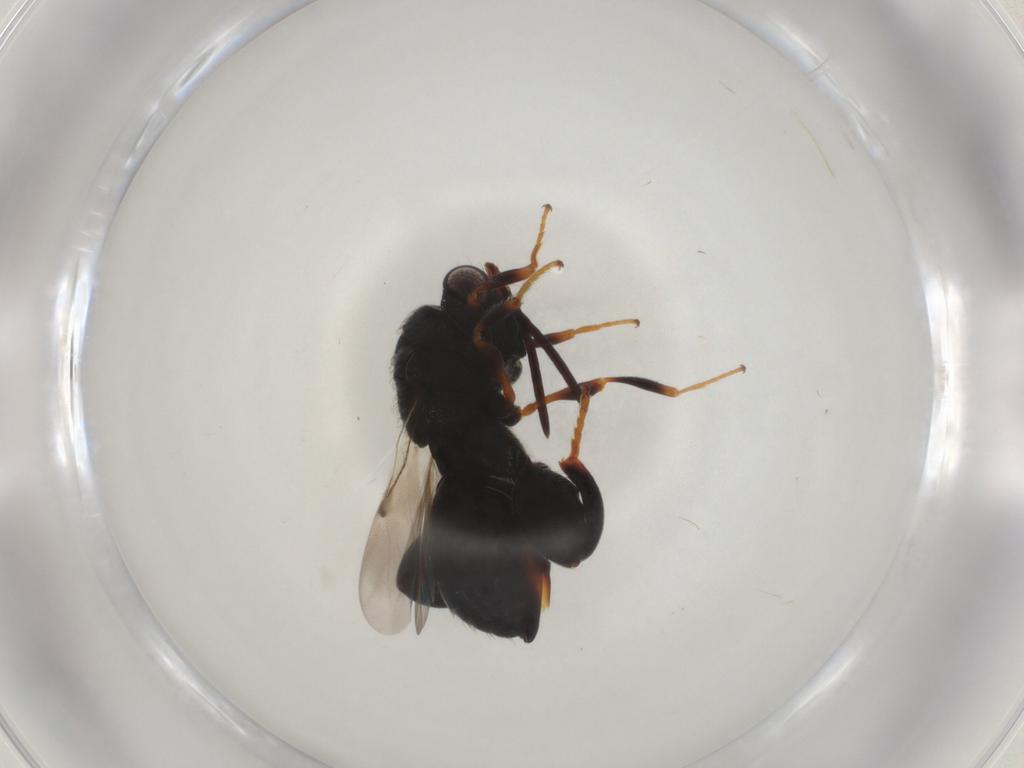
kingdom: Animalia
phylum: Arthropoda
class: Insecta
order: Hymenoptera
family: Chalcididae
